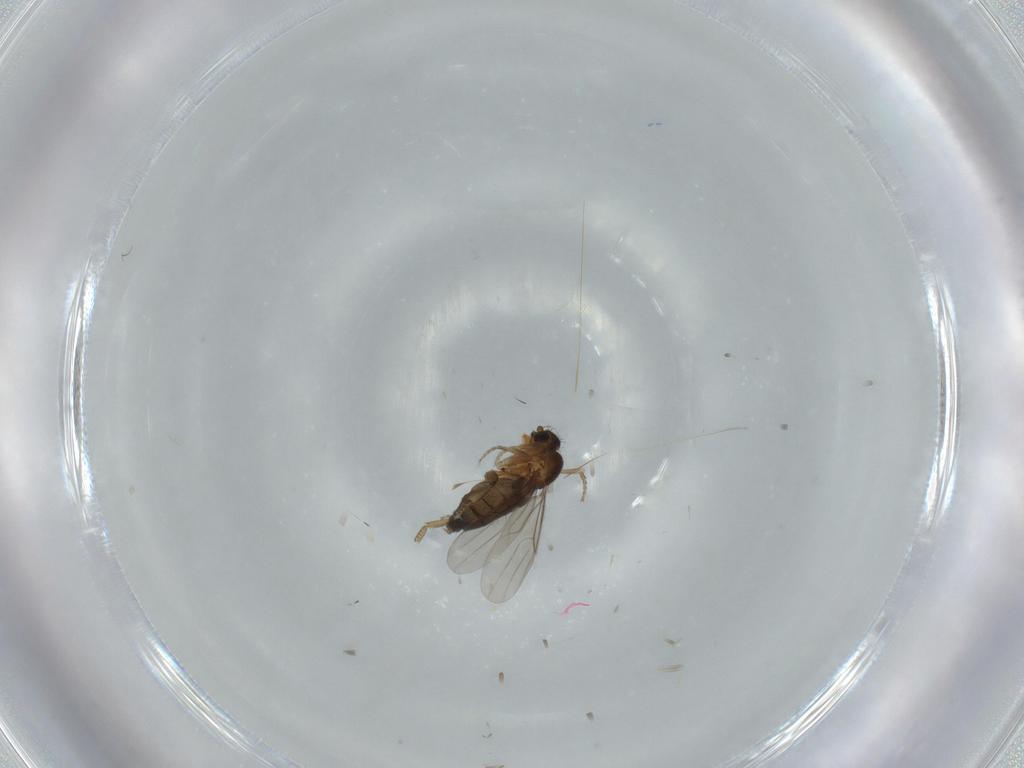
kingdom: Animalia
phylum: Arthropoda
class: Insecta
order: Diptera
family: Phoridae
